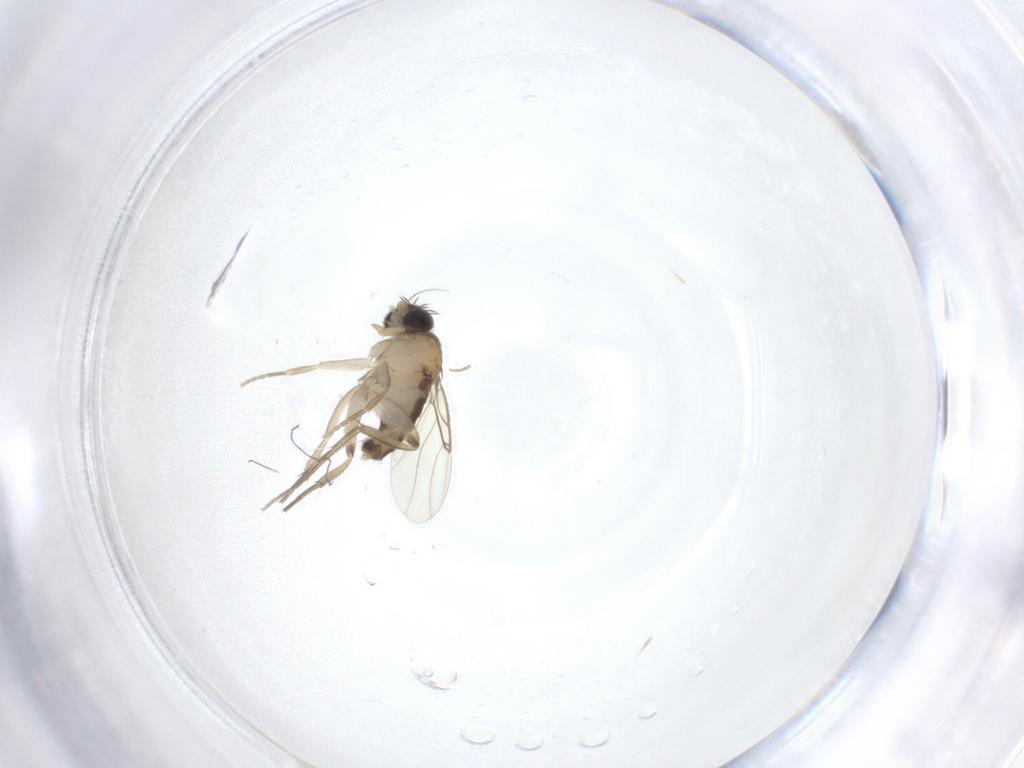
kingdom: Animalia
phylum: Arthropoda
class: Insecta
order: Diptera
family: Phoridae
